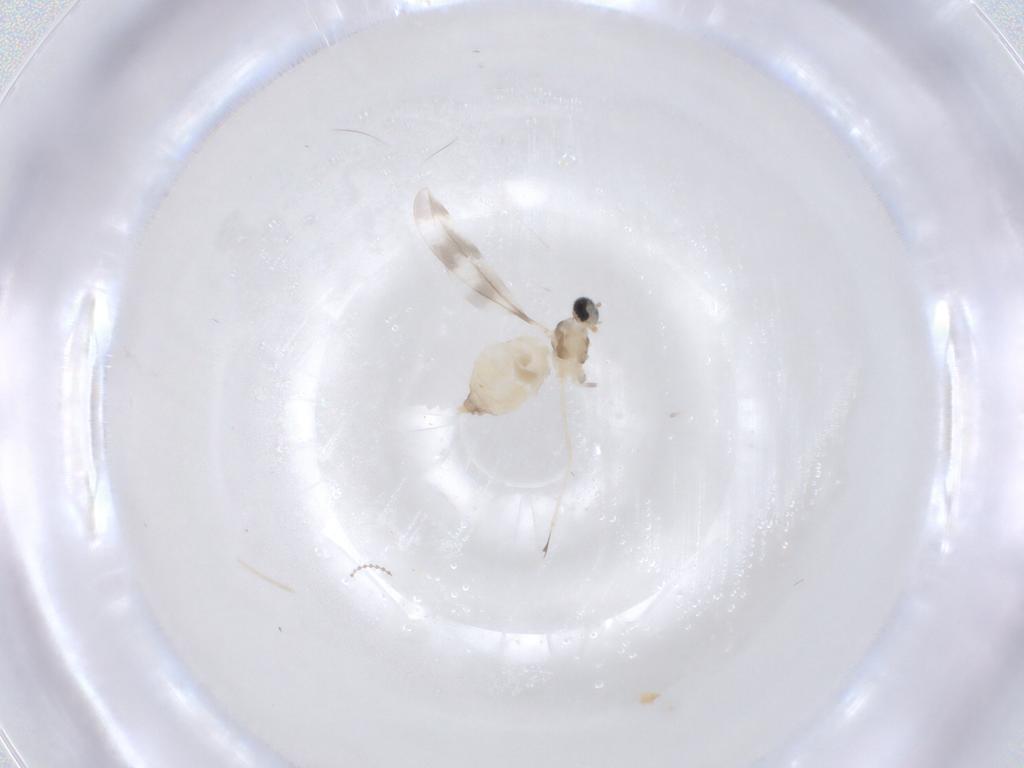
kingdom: Animalia
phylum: Arthropoda
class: Insecta
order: Diptera
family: Cecidomyiidae
